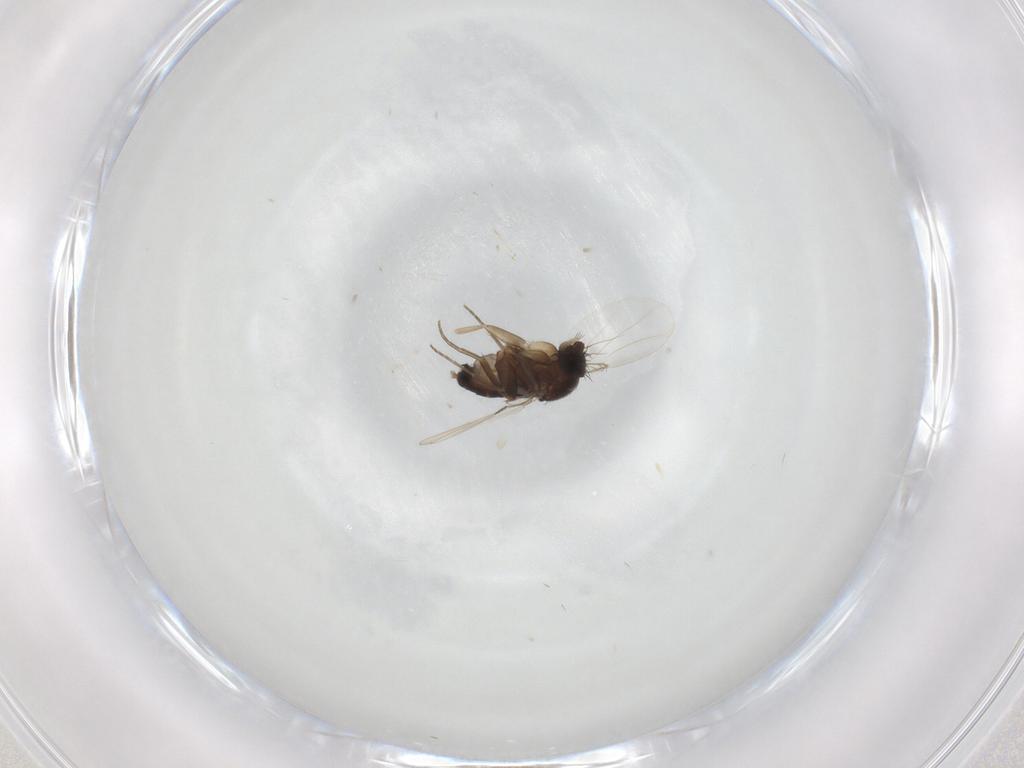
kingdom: Animalia
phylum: Arthropoda
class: Insecta
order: Diptera
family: Phoridae
